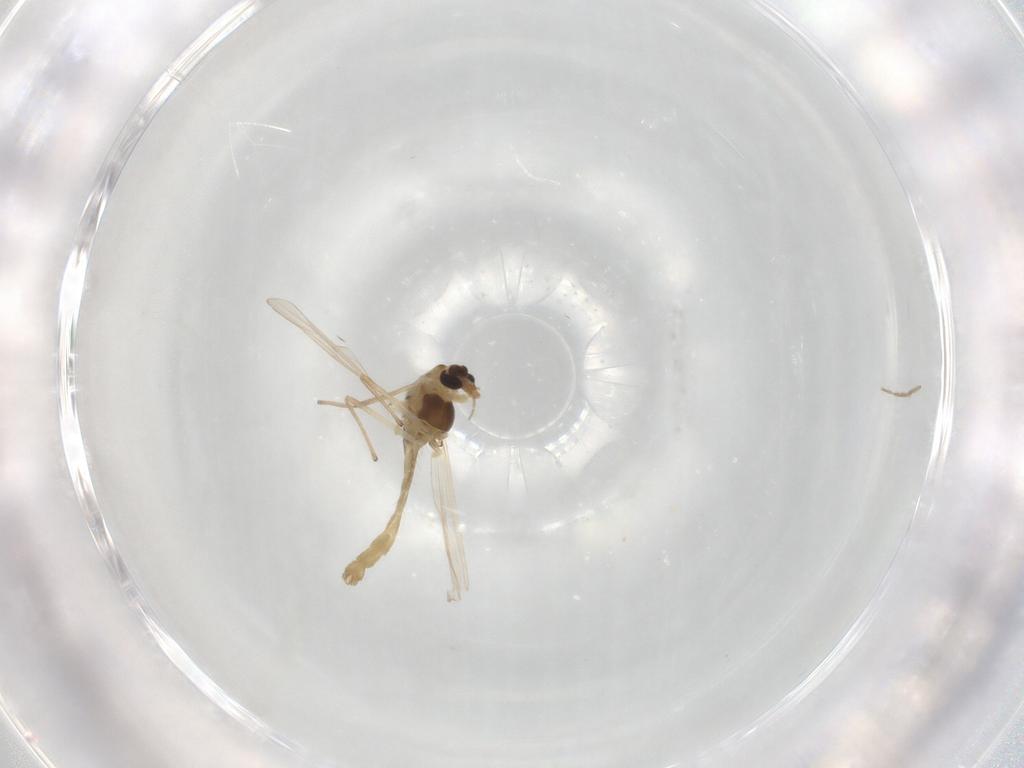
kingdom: Animalia
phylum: Arthropoda
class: Insecta
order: Diptera
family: Chironomidae
